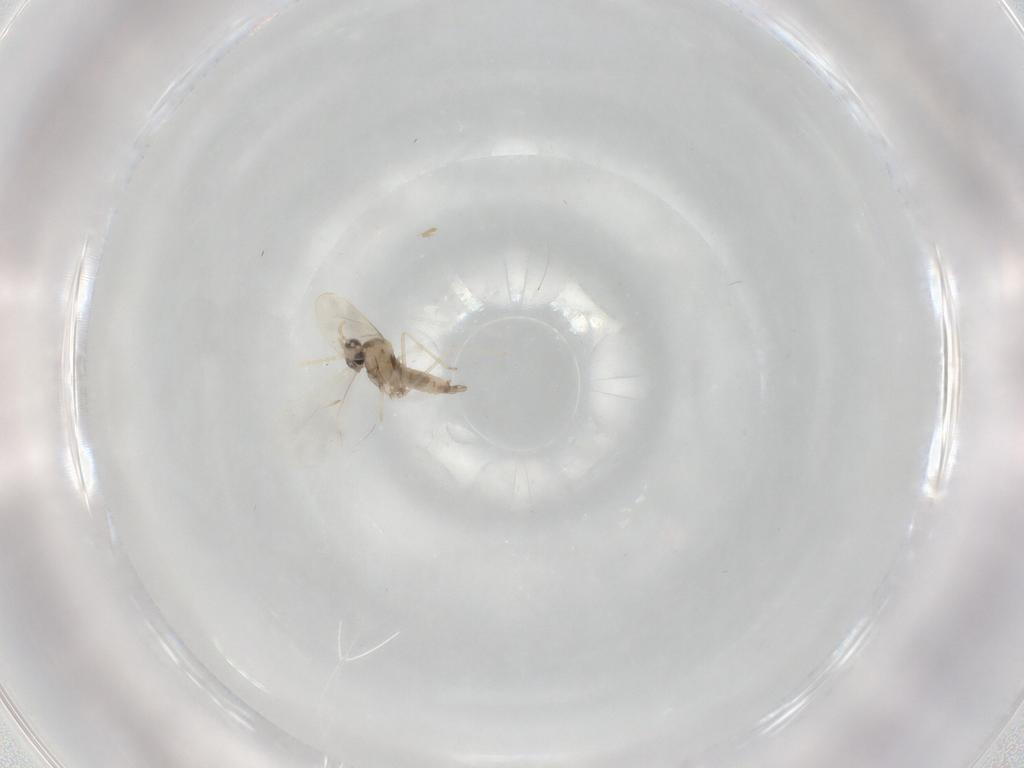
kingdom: Animalia
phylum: Arthropoda
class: Insecta
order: Diptera
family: Cecidomyiidae
